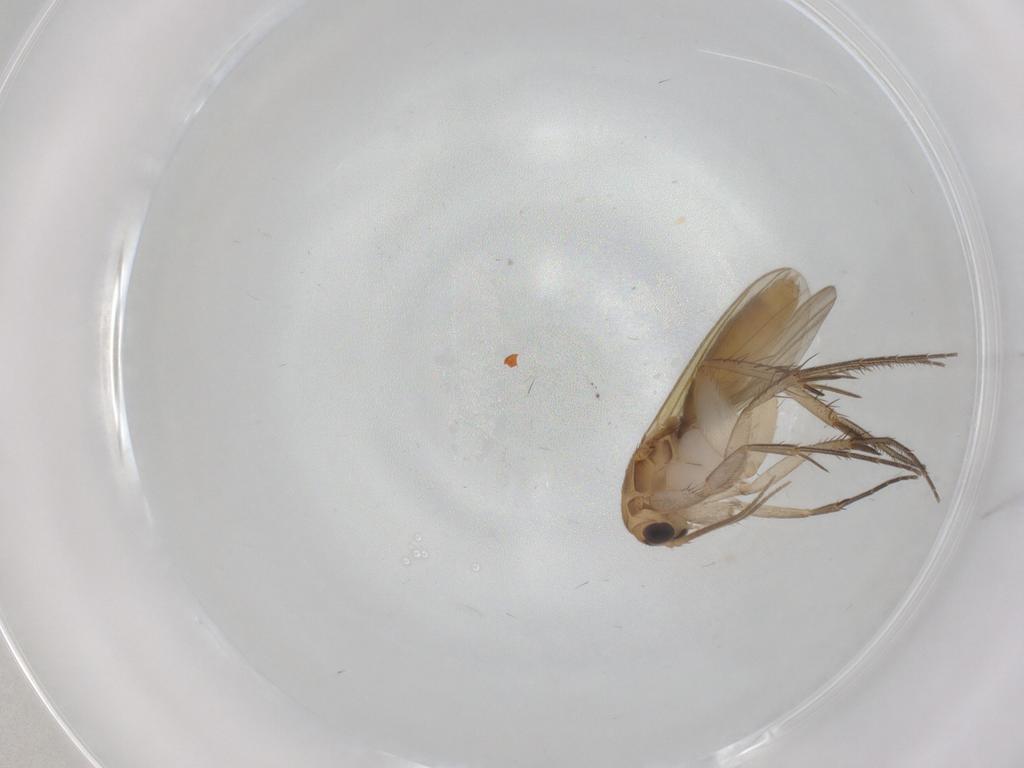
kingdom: Animalia
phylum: Arthropoda
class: Insecta
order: Diptera
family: Mycetophilidae
